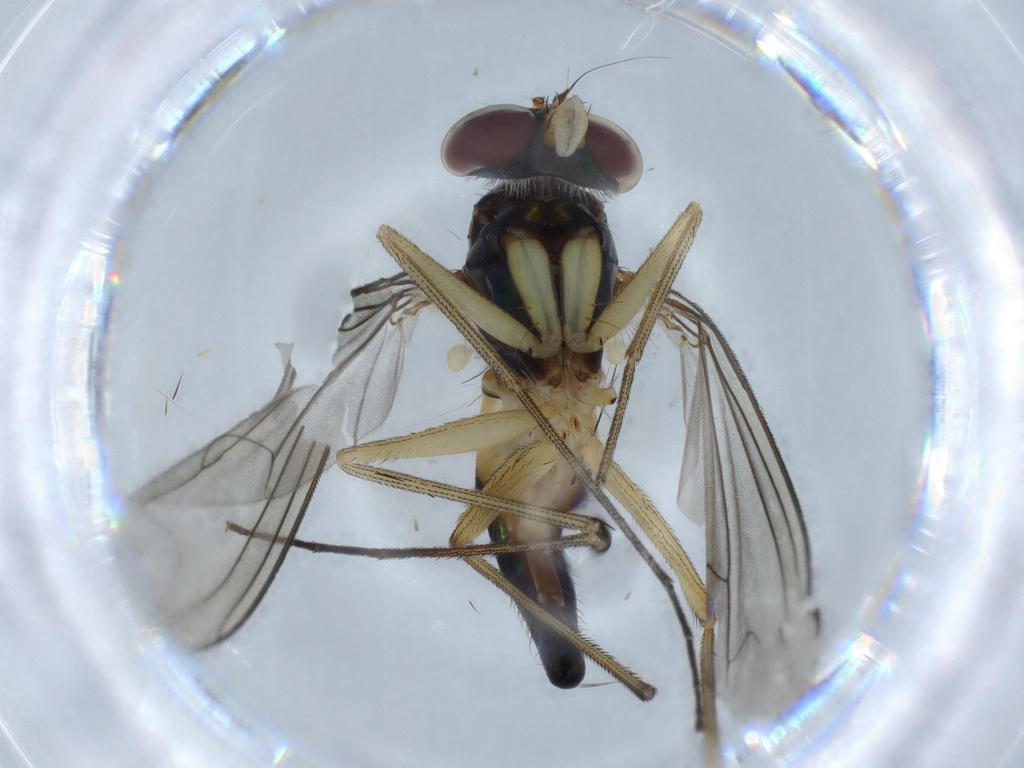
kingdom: Animalia
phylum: Arthropoda
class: Insecta
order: Diptera
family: Dolichopodidae
